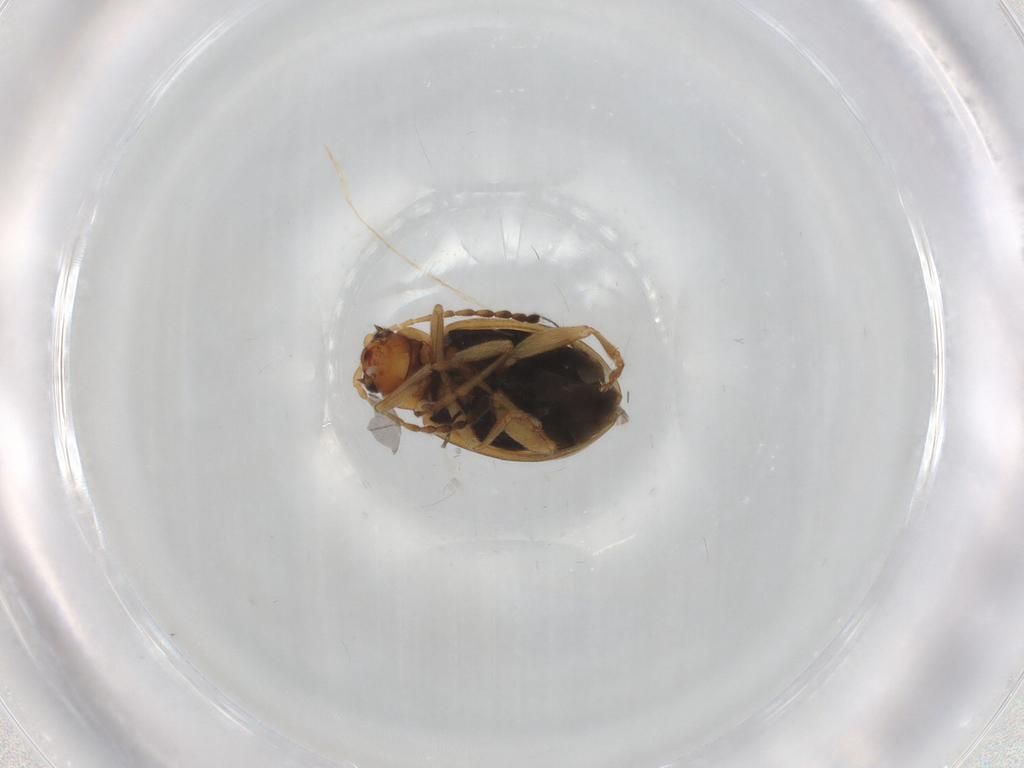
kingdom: Animalia
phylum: Arthropoda
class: Insecta
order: Coleoptera
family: Chrysomelidae
